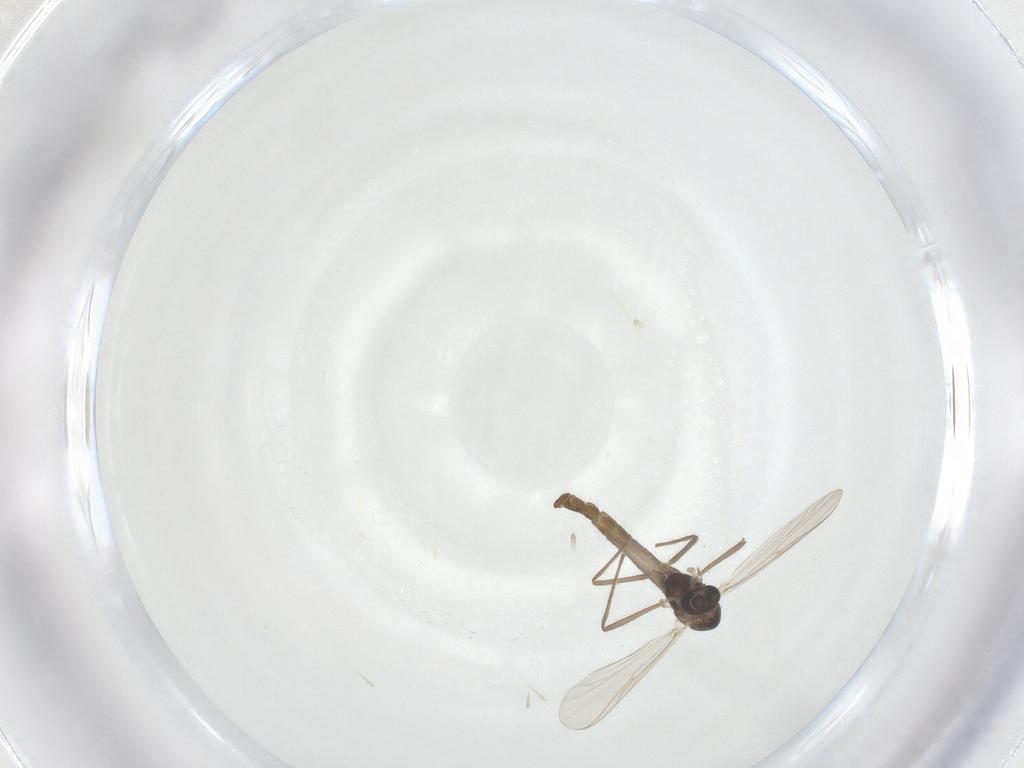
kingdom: Animalia
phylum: Arthropoda
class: Insecta
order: Diptera
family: Chironomidae
